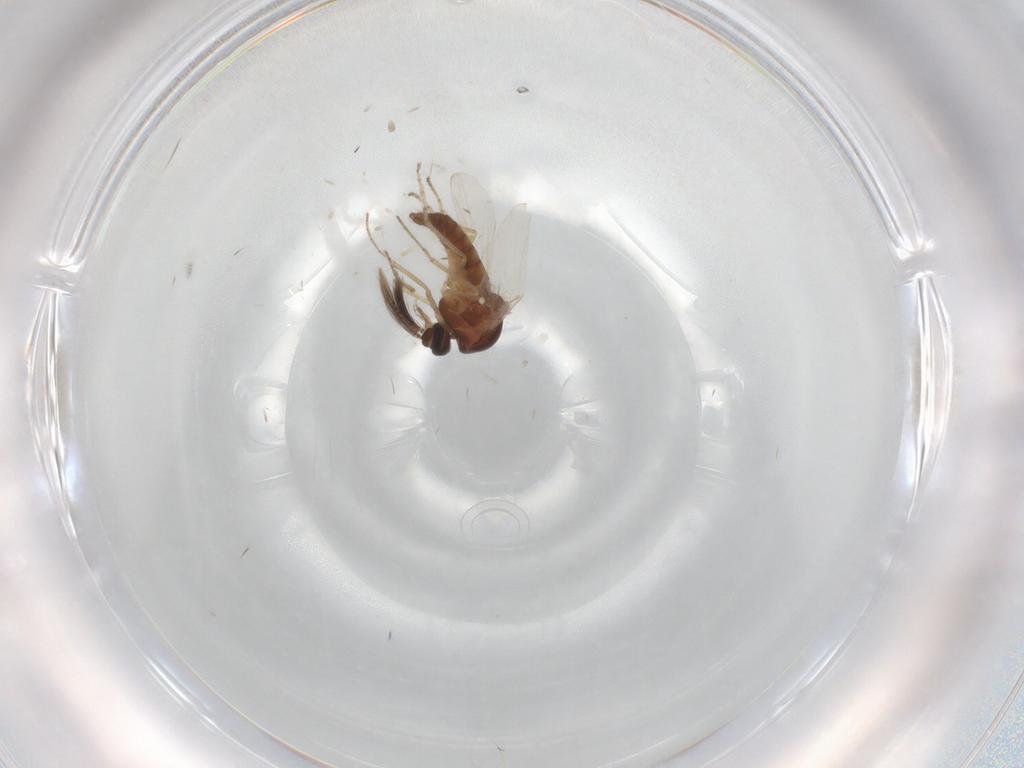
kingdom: Animalia
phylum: Arthropoda
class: Insecta
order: Diptera
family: Ceratopogonidae
